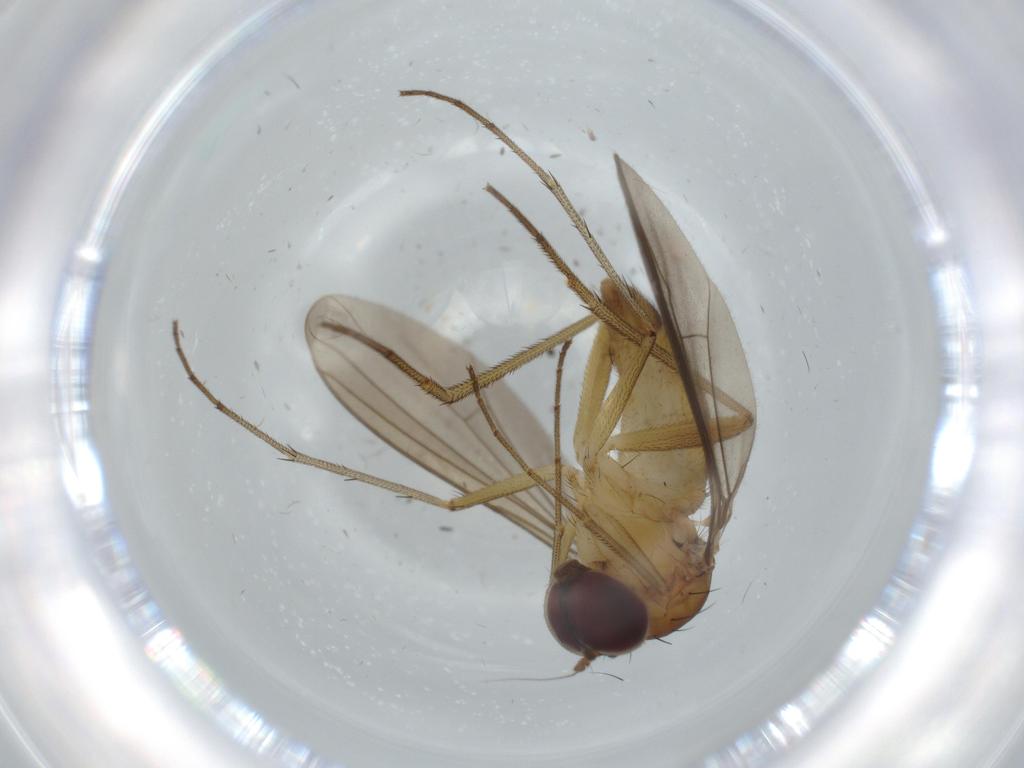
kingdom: Animalia
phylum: Arthropoda
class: Insecta
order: Diptera
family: Dolichopodidae
